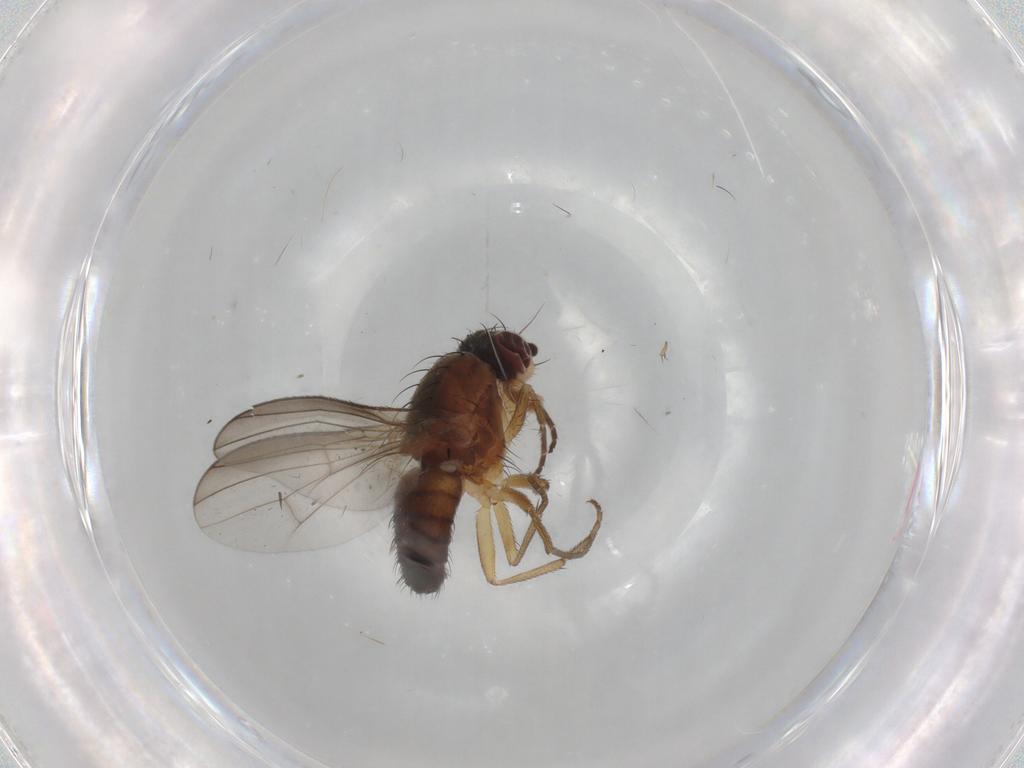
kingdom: Animalia
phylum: Arthropoda
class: Insecta
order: Diptera
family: Heleomyzidae
